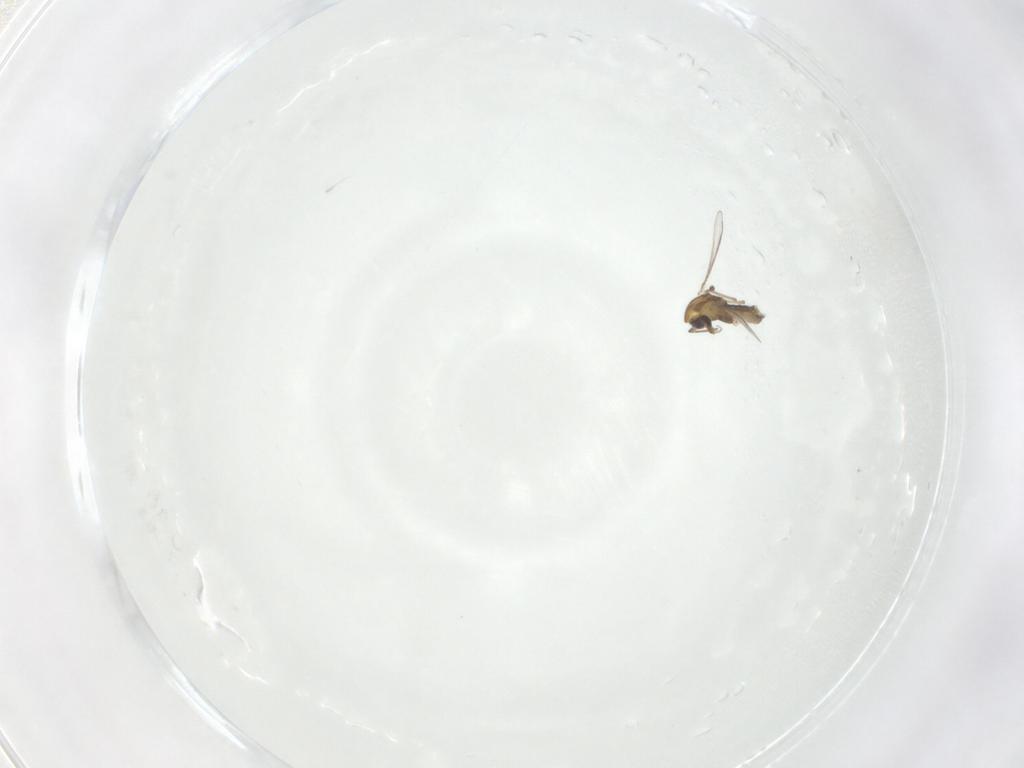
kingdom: Animalia
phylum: Arthropoda
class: Insecta
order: Diptera
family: Chironomidae
